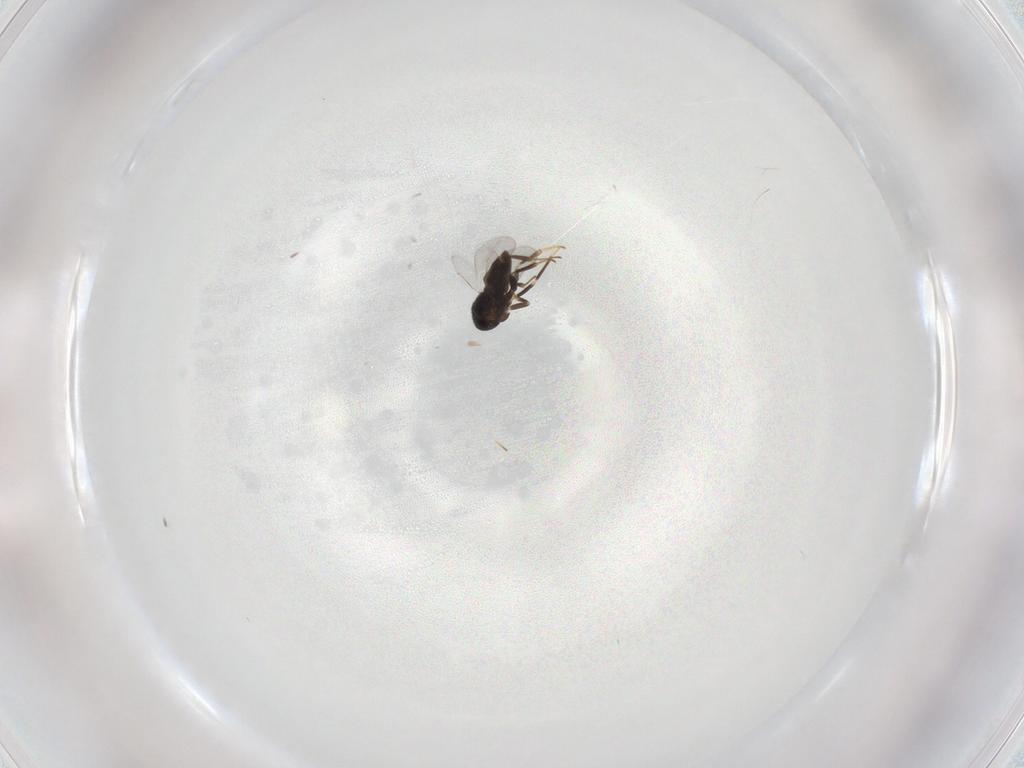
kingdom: Animalia
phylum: Arthropoda
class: Insecta
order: Hymenoptera
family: Encyrtidae
